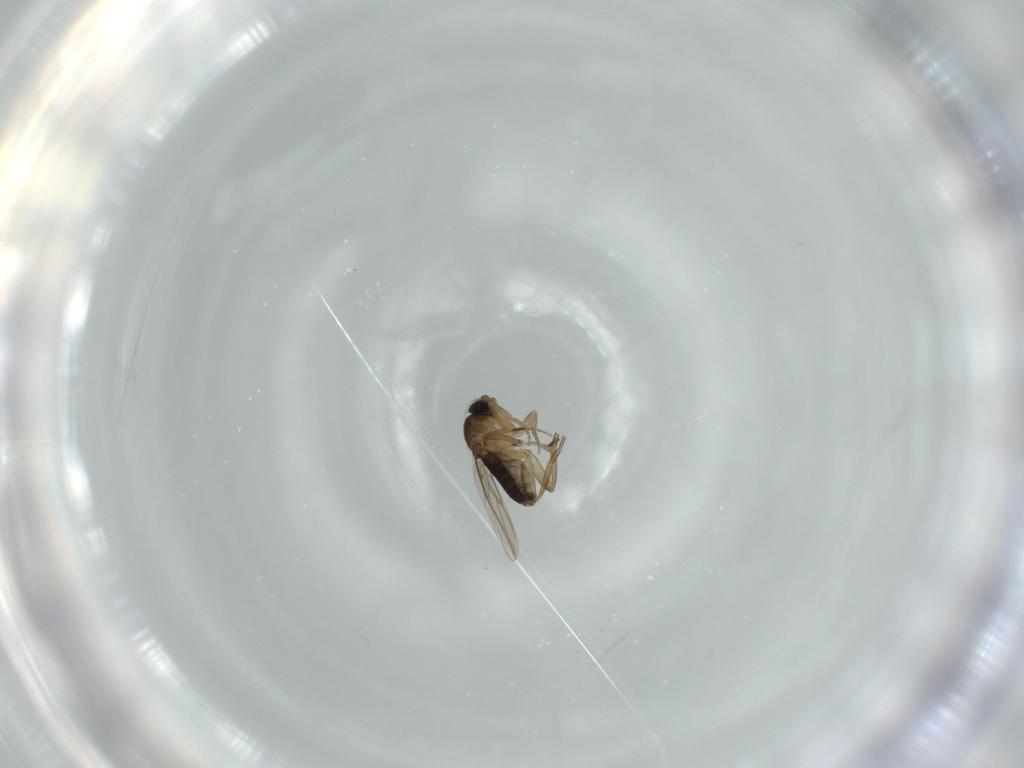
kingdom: Animalia
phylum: Arthropoda
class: Insecta
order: Diptera
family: Phoridae
